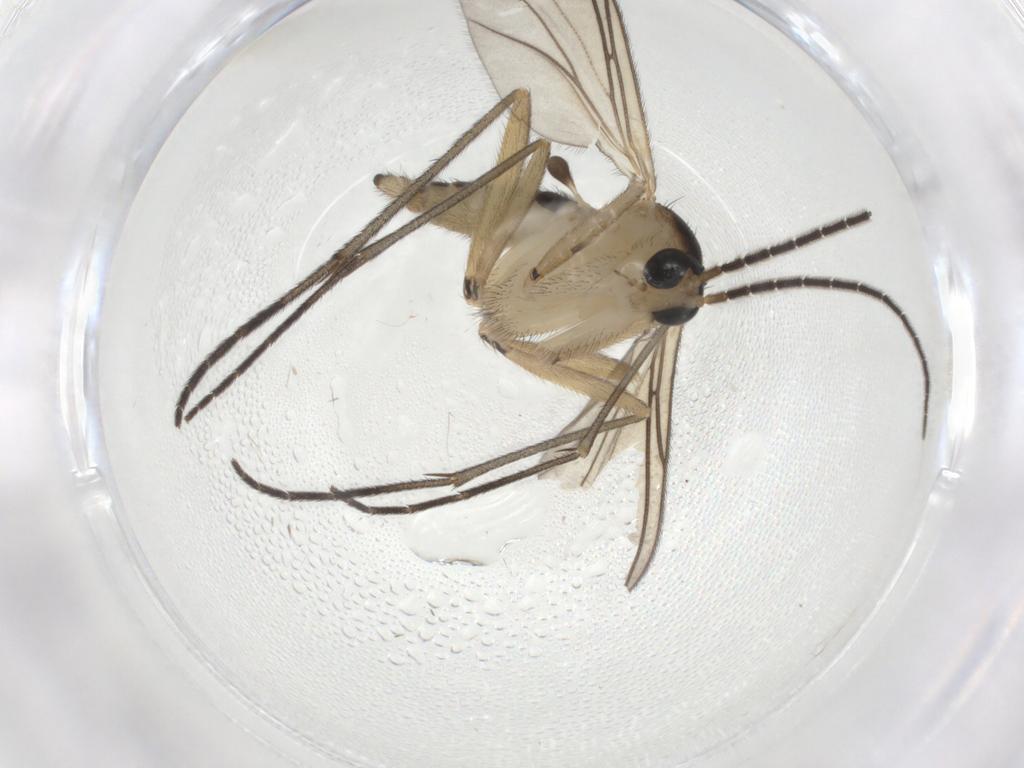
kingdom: Animalia
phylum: Arthropoda
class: Insecta
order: Diptera
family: Sciaridae
